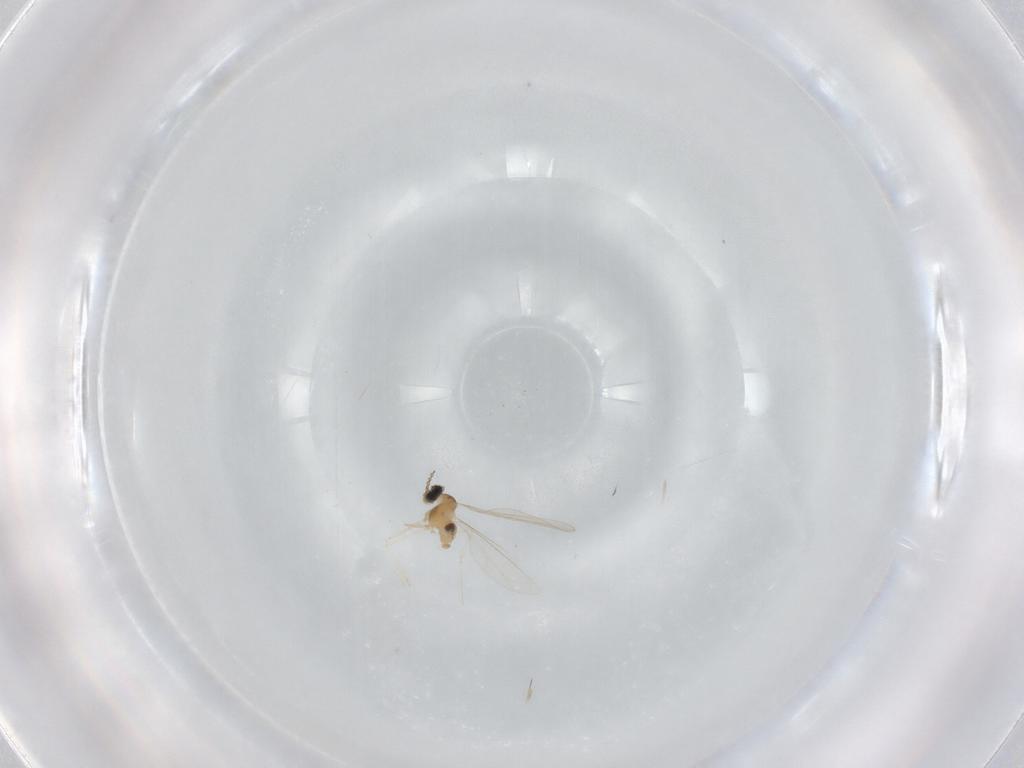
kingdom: Animalia
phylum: Arthropoda
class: Insecta
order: Diptera
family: Cecidomyiidae
